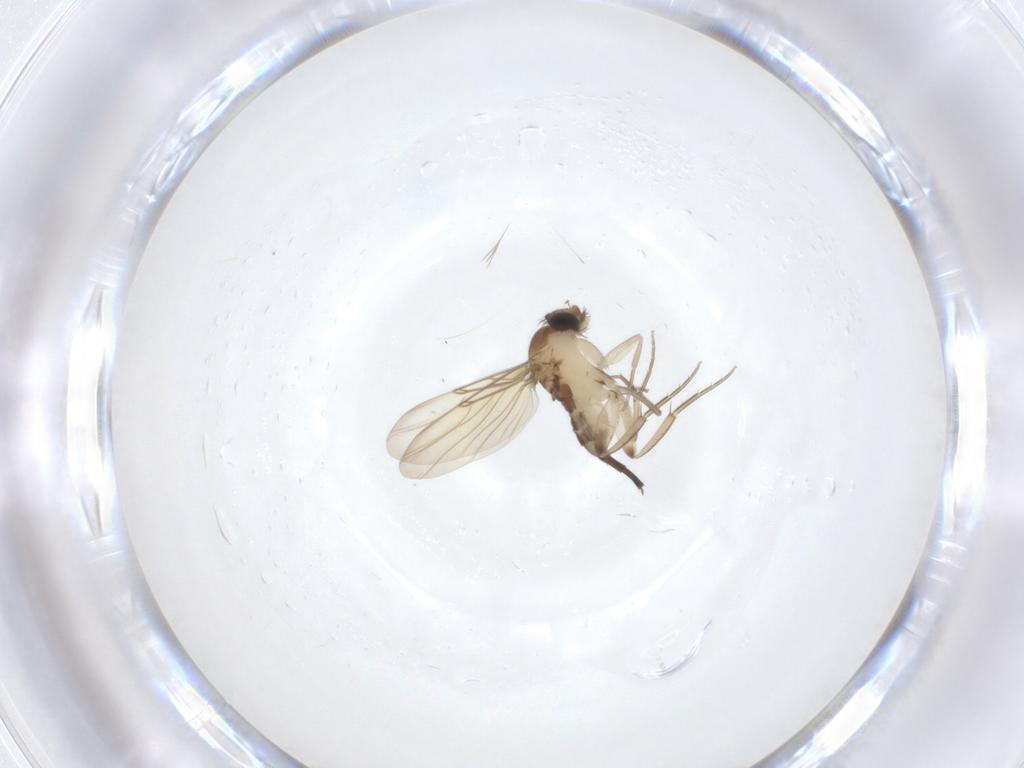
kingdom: Animalia
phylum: Arthropoda
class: Insecta
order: Diptera
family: Phoridae
